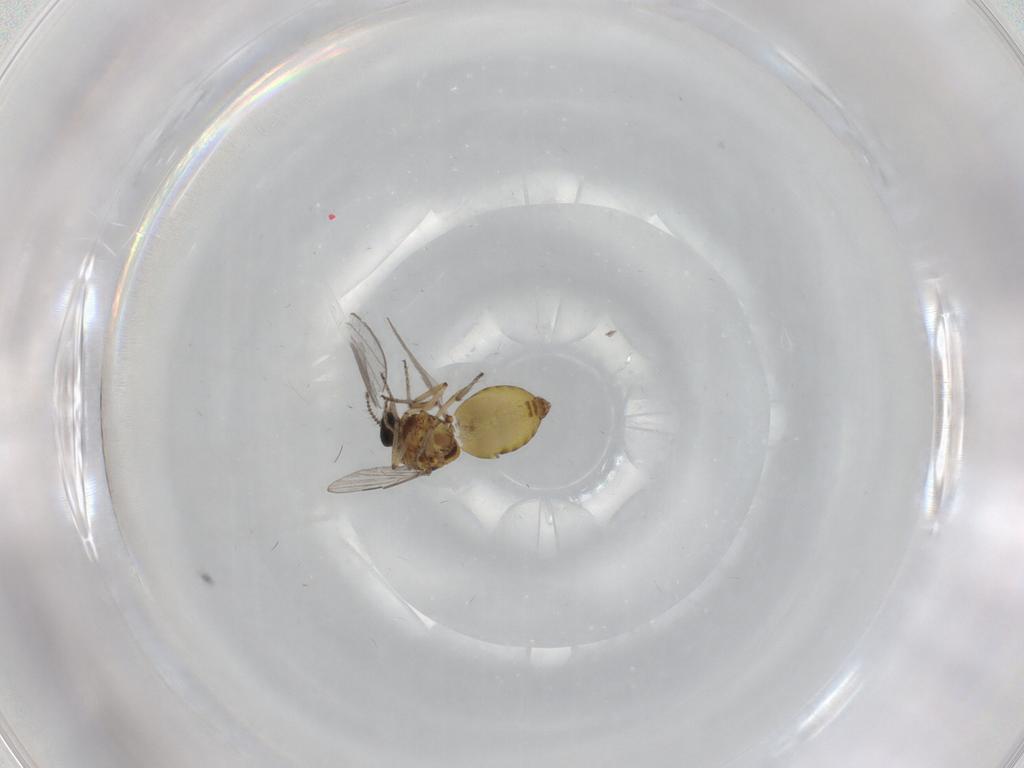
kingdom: Animalia
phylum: Arthropoda
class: Insecta
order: Diptera
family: Ceratopogonidae
